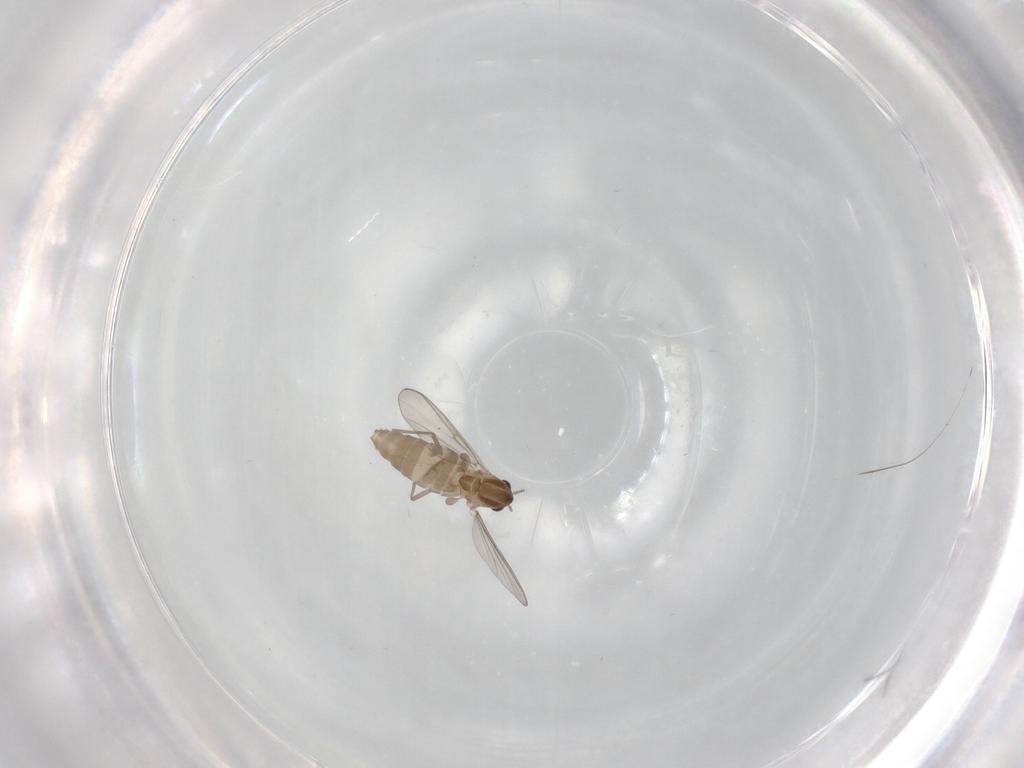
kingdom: Animalia
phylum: Arthropoda
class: Insecta
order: Diptera
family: Chironomidae
